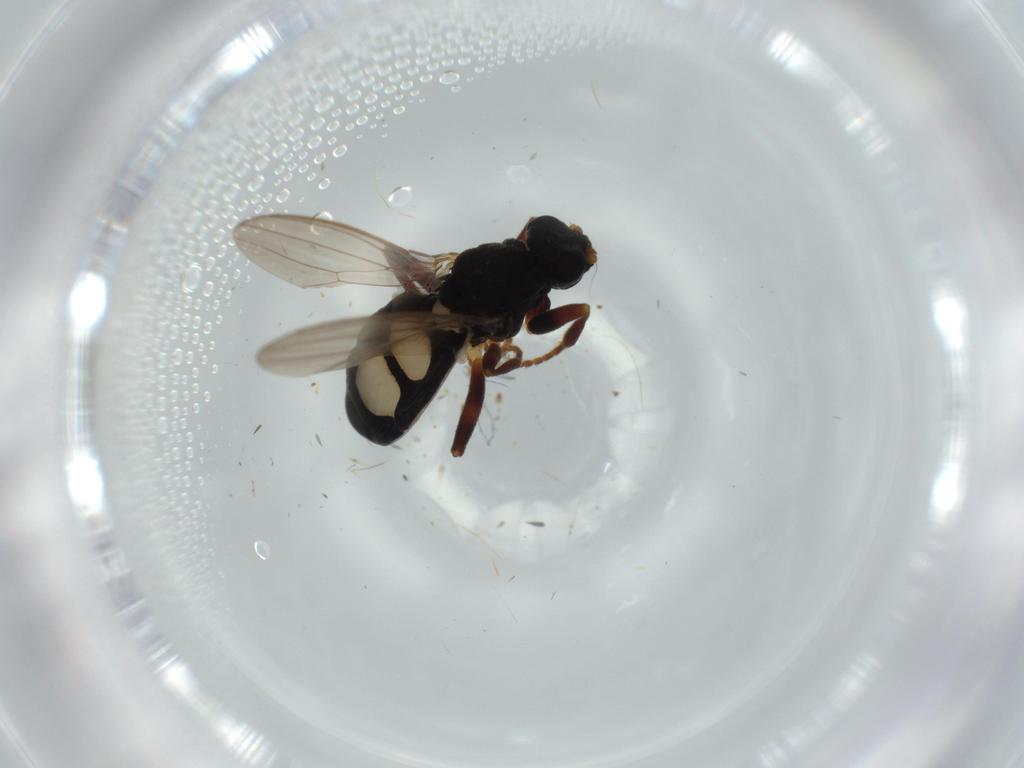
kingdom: Animalia
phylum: Arthropoda
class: Insecta
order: Diptera
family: Sphaeroceridae
